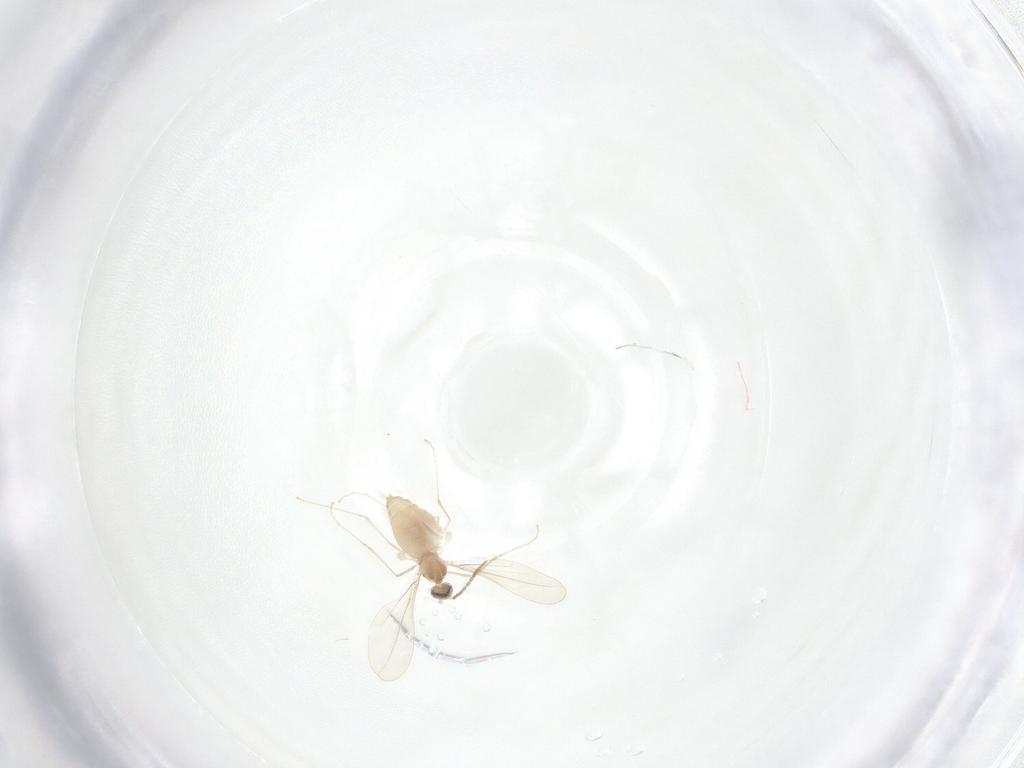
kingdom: Animalia
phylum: Arthropoda
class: Insecta
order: Diptera
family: Cecidomyiidae
